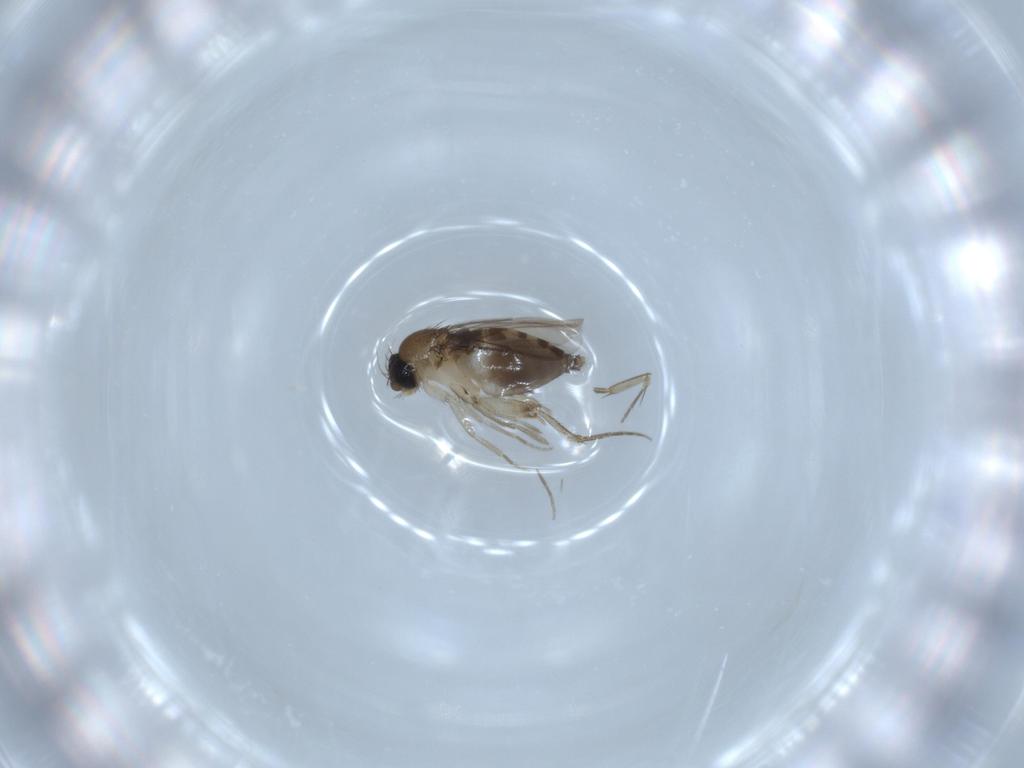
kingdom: Animalia
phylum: Arthropoda
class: Insecta
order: Diptera
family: Phoridae
